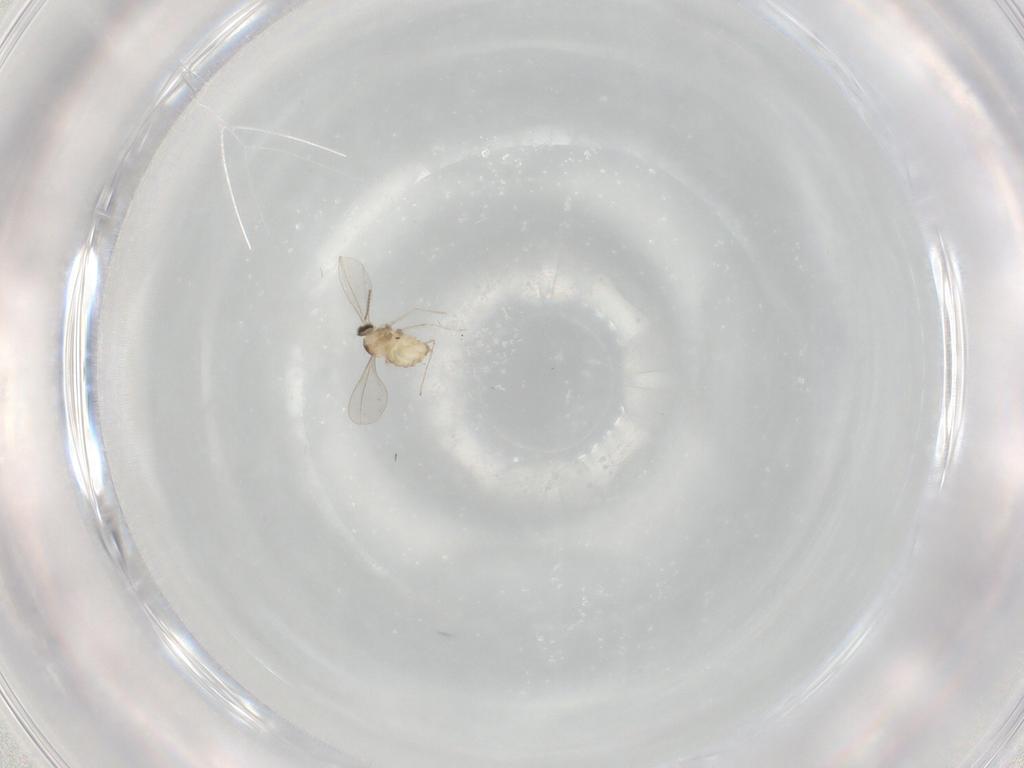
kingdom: Animalia
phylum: Arthropoda
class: Insecta
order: Diptera
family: Cecidomyiidae
